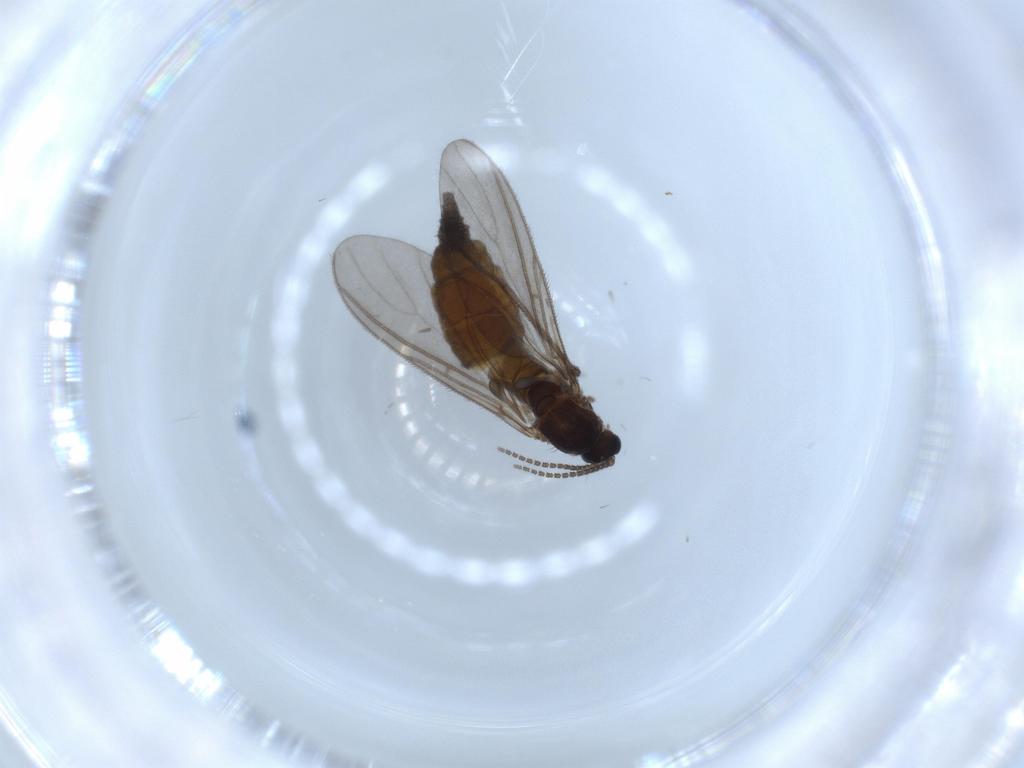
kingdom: Animalia
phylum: Arthropoda
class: Insecta
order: Diptera
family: Sciaridae
